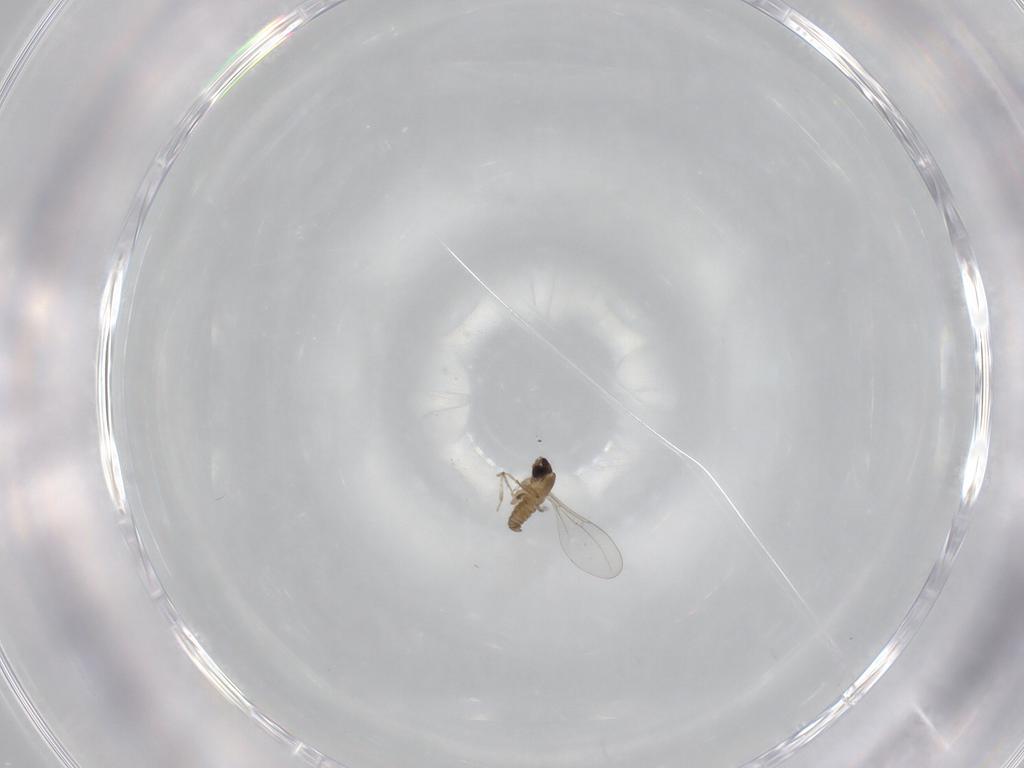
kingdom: Animalia
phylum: Arthropoda
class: Insecta
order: Diptera
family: Cecidomyiidae
